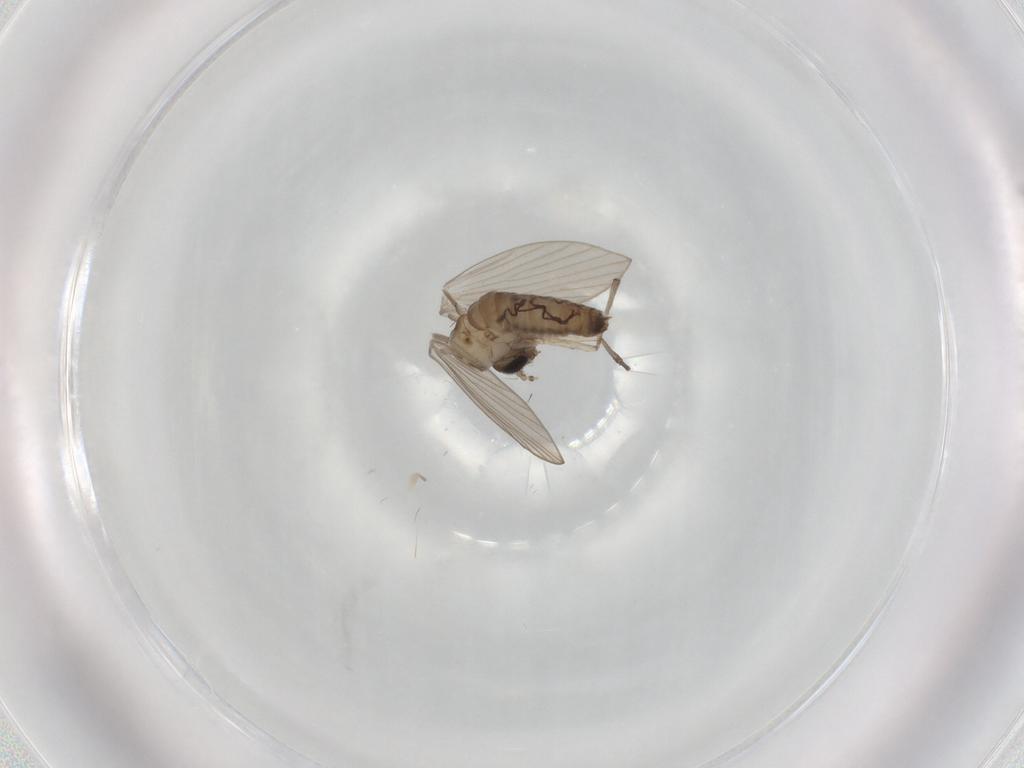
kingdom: Animalia
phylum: Arthropoda
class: Insecta
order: Diptera
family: Psychodidae
